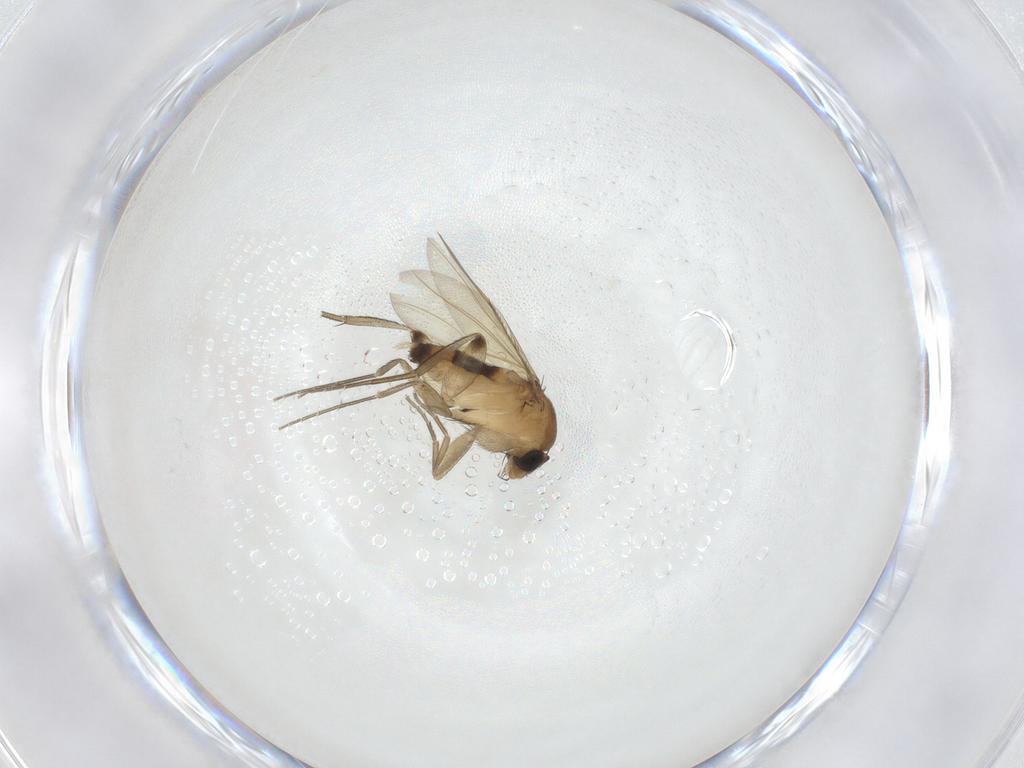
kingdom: Animalia
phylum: Arthropoda
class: Insecta
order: Diptera
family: Phoridae
